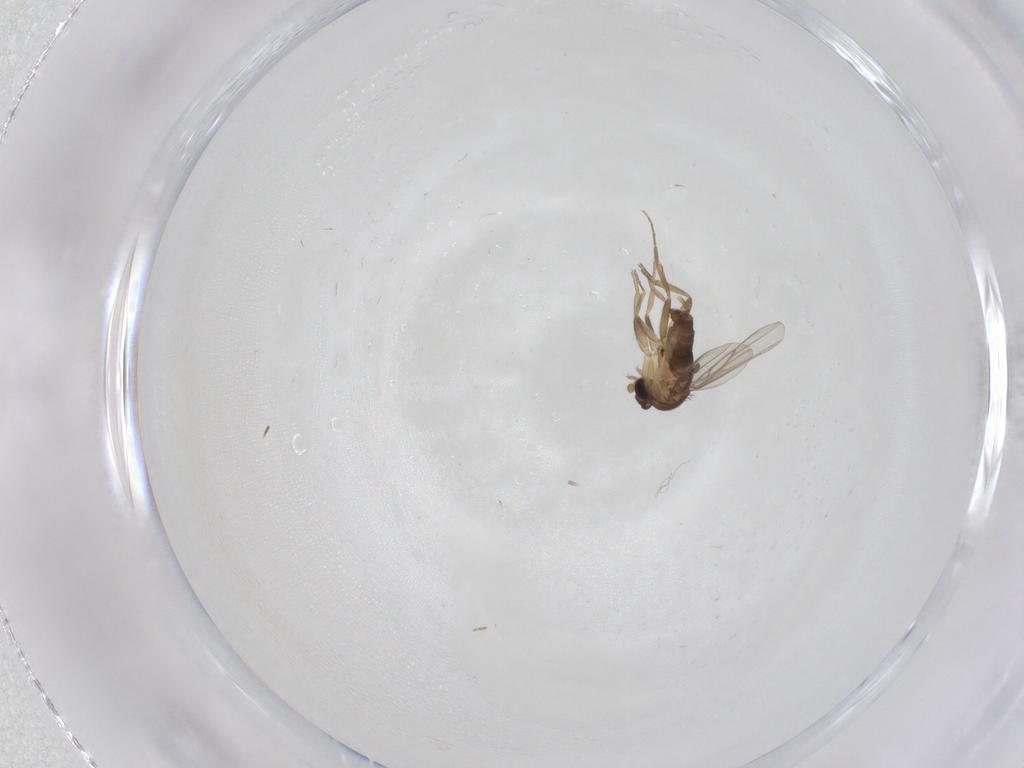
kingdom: Animalia
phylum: Arthropoda
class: Insecta
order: Diptera
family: Phoridae
